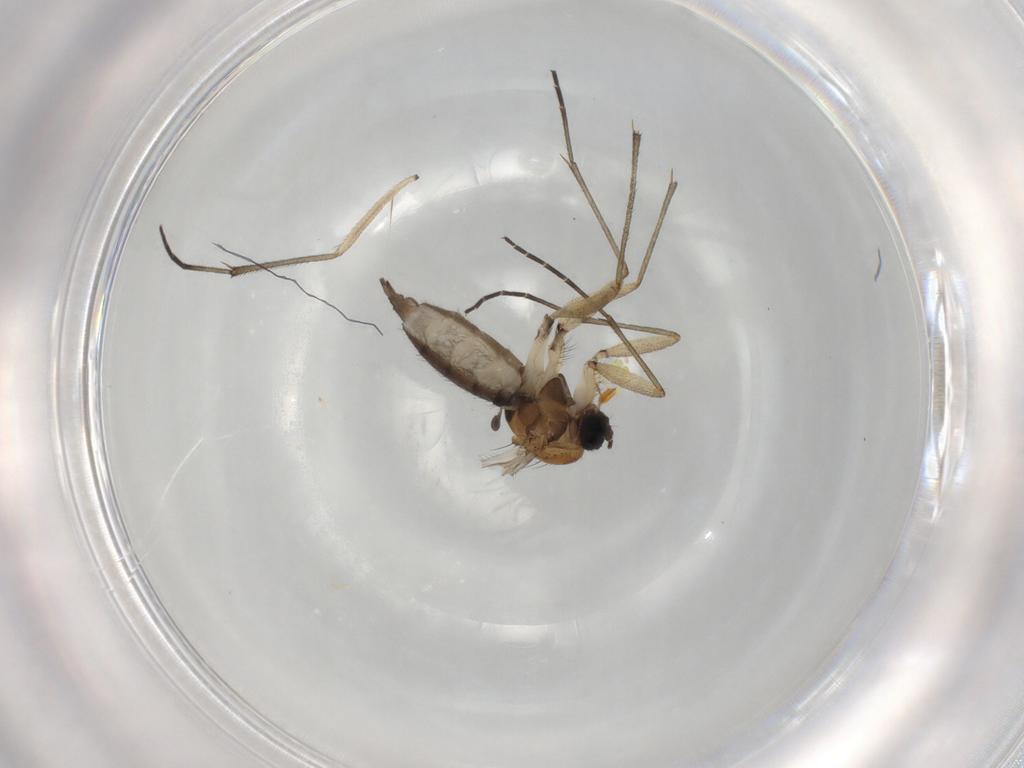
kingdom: Animalia
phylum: Arthropoda
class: Insecta
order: Diptera
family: Sciaridae
